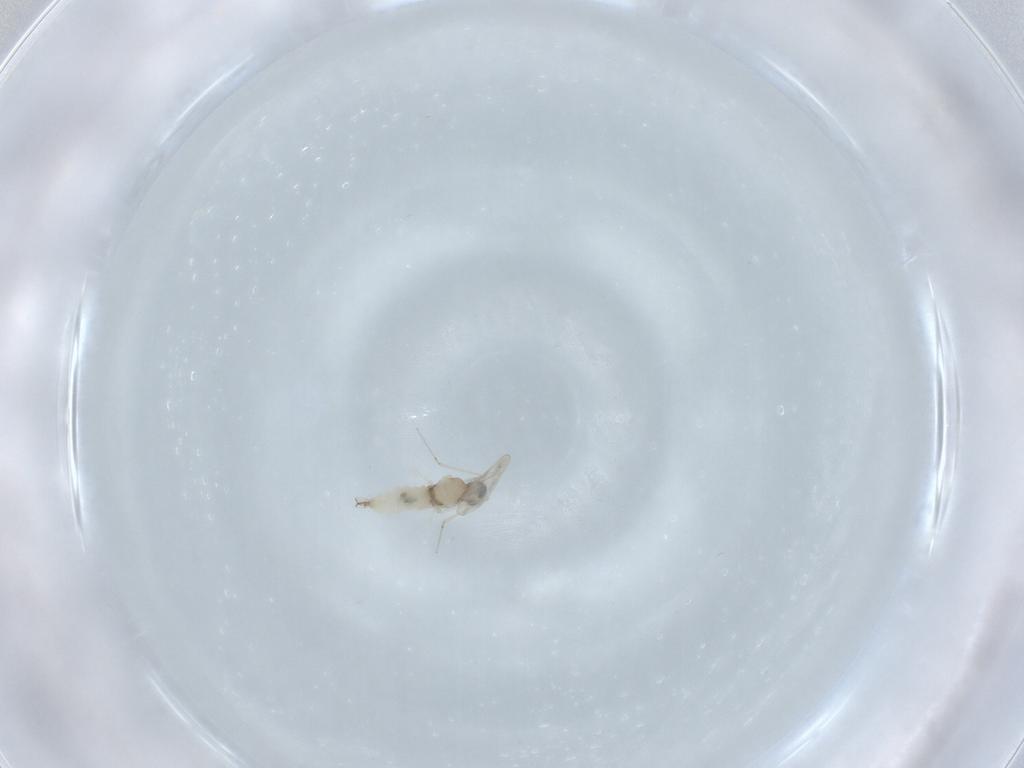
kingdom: Animalia
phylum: Arthropoda
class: Insecta
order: Diptera
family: Cecidomyiidae
